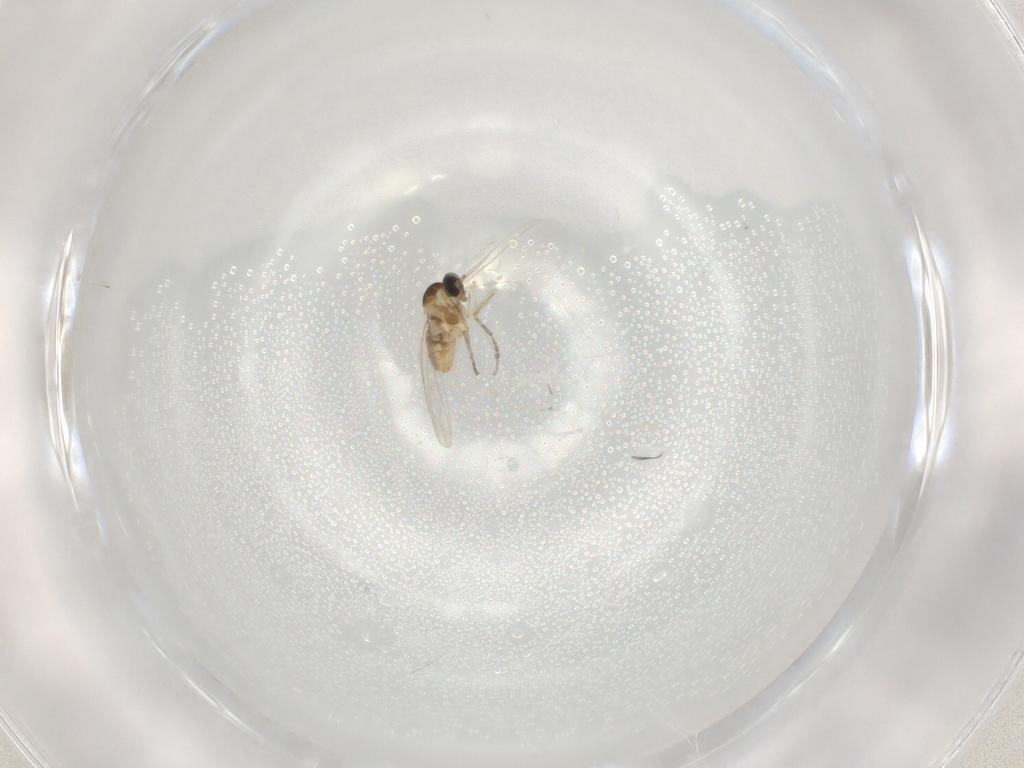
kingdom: Animalia
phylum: Arthropoda
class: Insecta
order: Diptera
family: Cecidomyiidae
